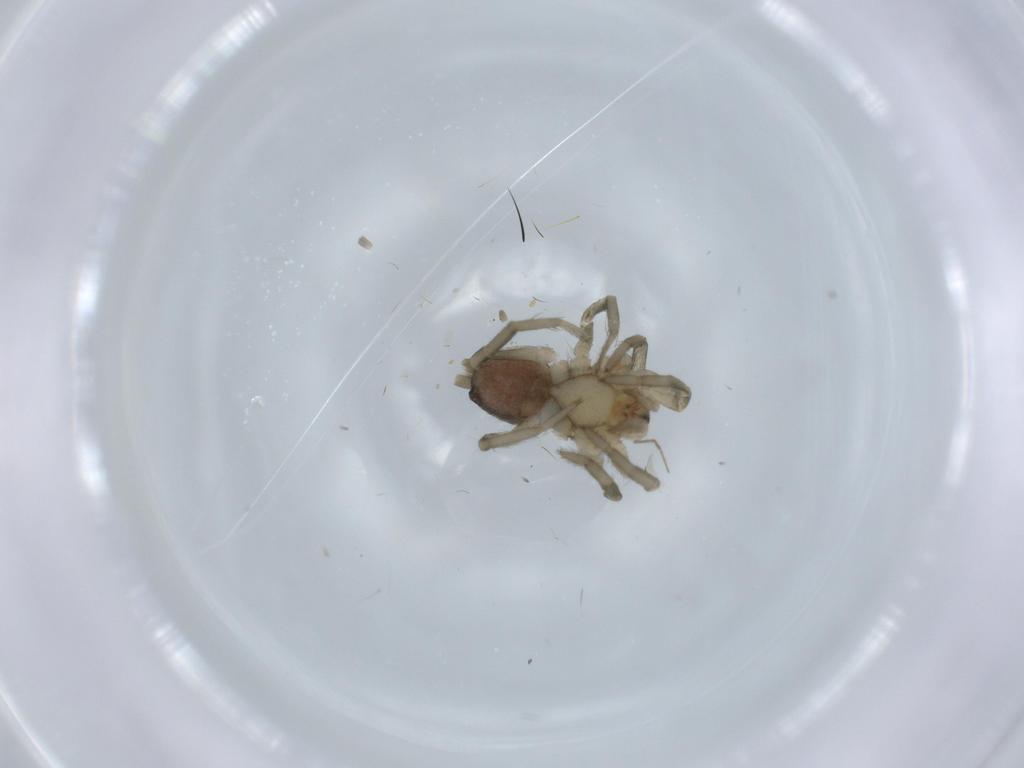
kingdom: Animalia
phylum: Arthropoda
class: Arachnida
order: Araneae
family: Gnaphosidae
